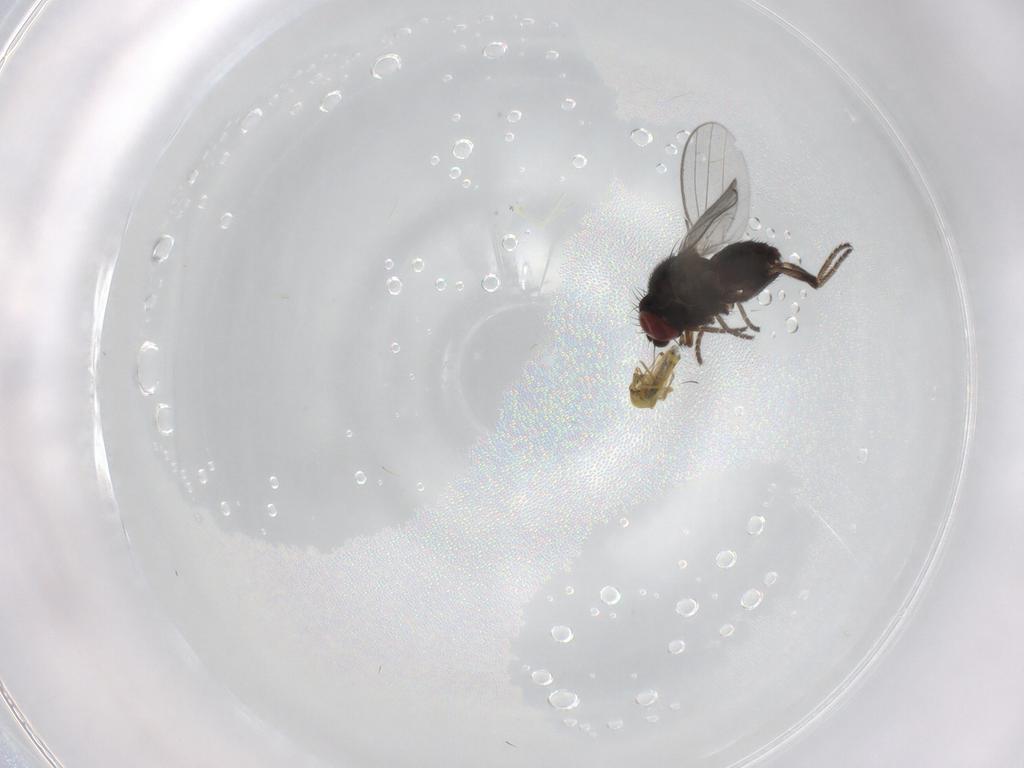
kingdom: Animalia
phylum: Arthropoda
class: Insecta
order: Diptera
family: Milichiidae
